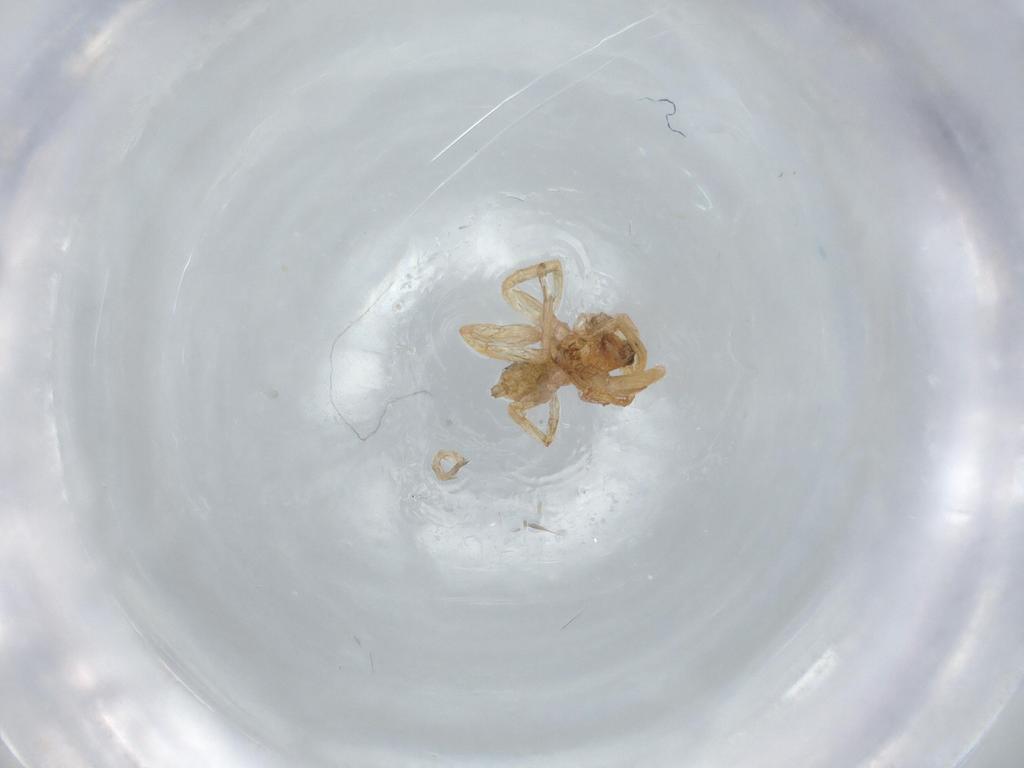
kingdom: Animalia
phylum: Arthropoda
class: Arachnida
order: Araneae
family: Oonopidae
